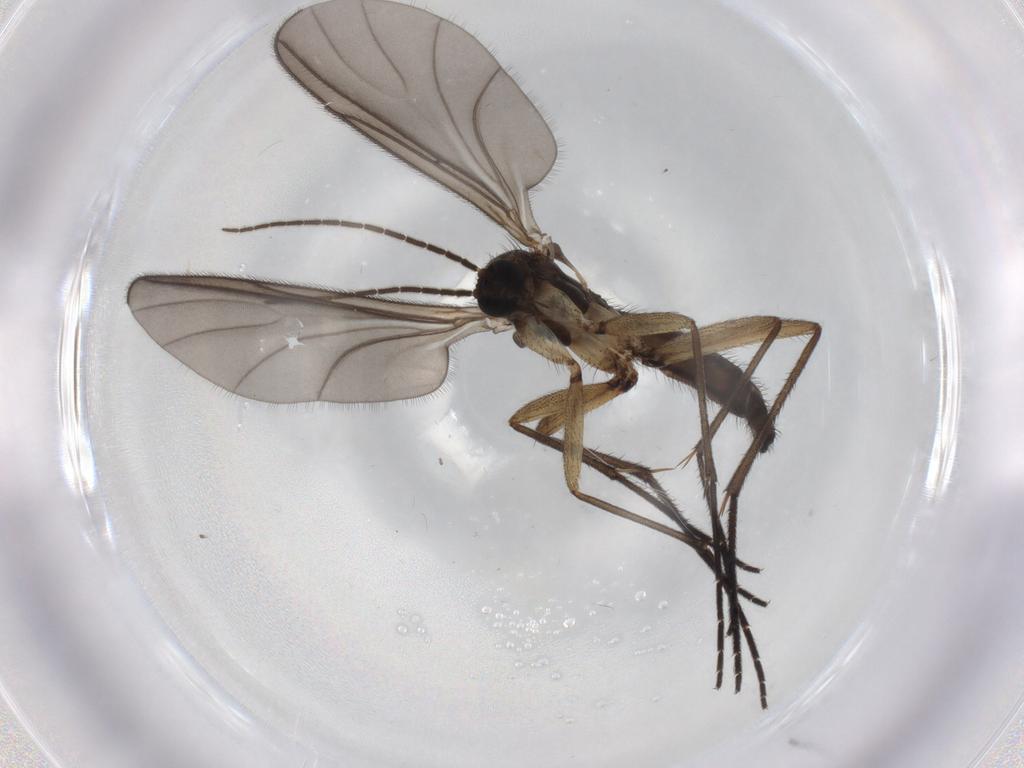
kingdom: Animalia
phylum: Arthropoda
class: Insecta
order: Diptera
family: Sciaridae
